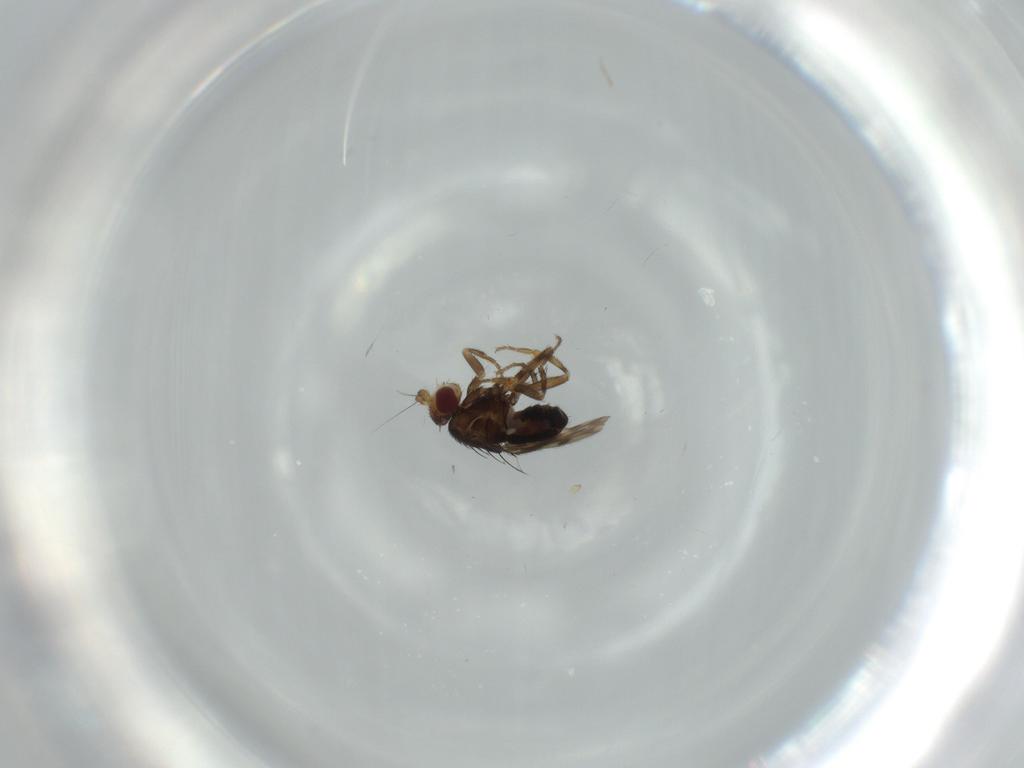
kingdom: Animalia
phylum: Arthropoda
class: Insecta
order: Diptera
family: Sphaeroceridae
